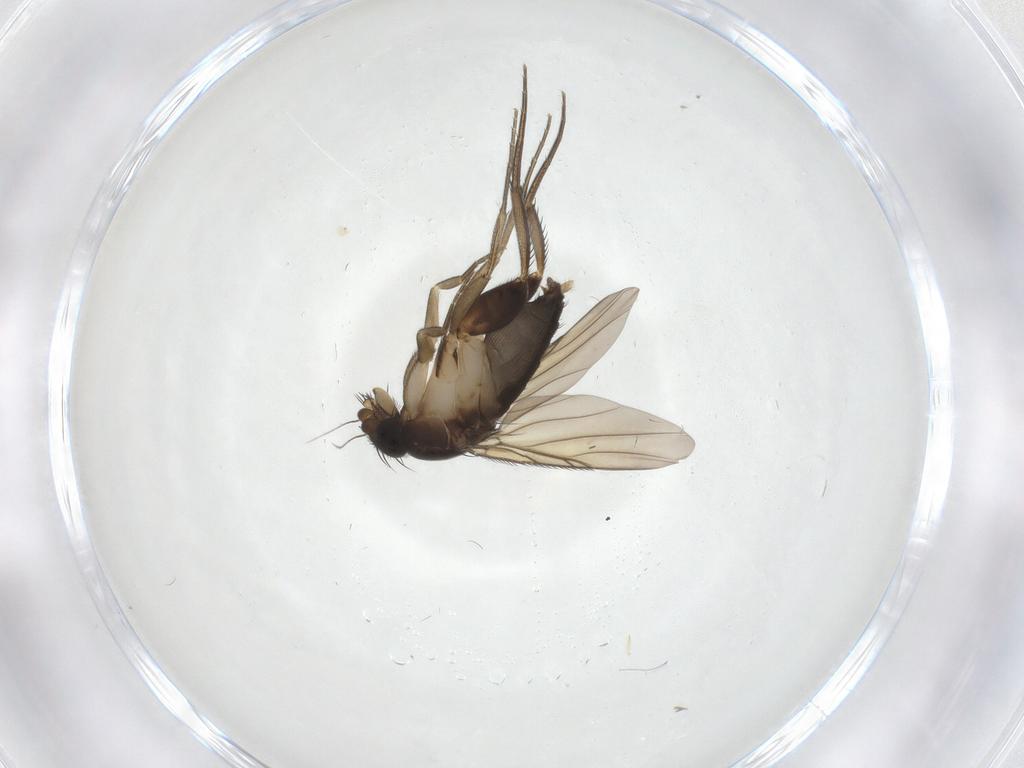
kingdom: Animalia
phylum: Arthropoda
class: Insecta
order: Diptera
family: Phoridae
